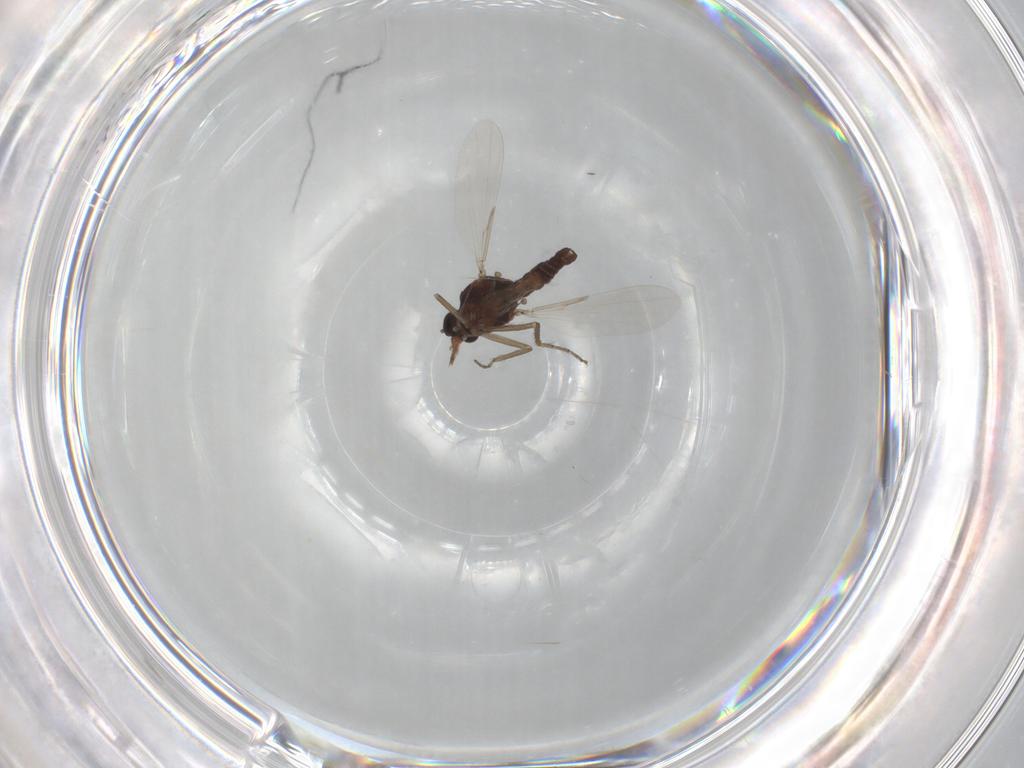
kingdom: Animalia
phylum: Arthropoda
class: Insecta
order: Diptera
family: Ceratopogonidae
